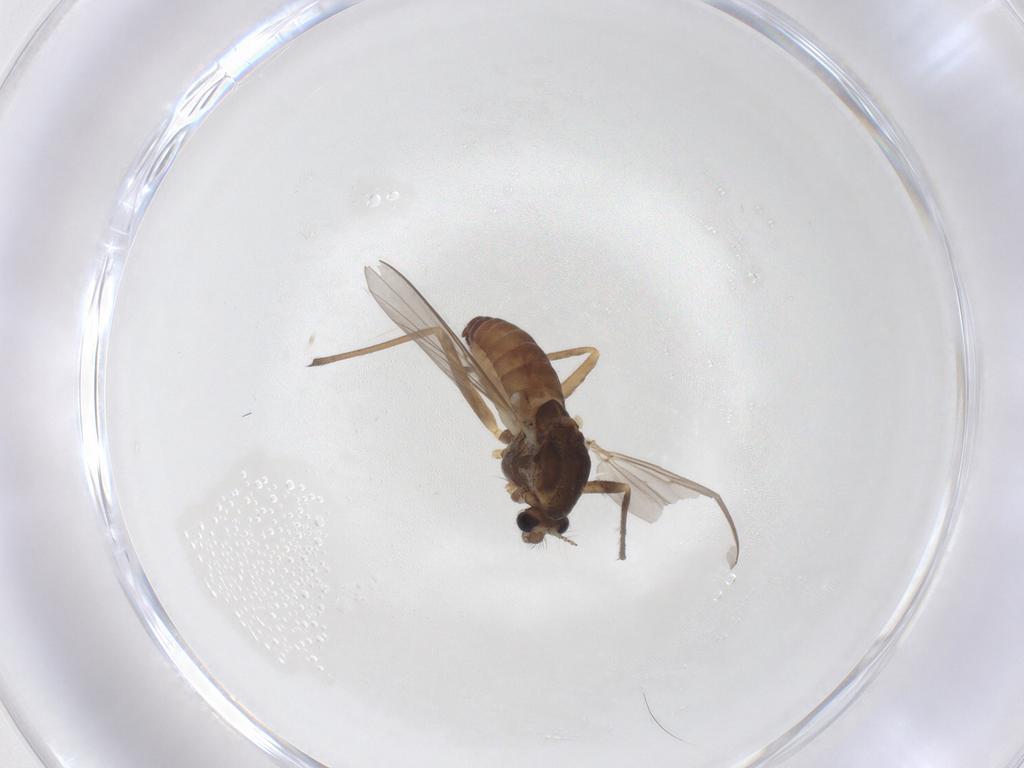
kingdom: Animalia
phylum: Arthropoda
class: Insecta
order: Diptera
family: Chironomidae
